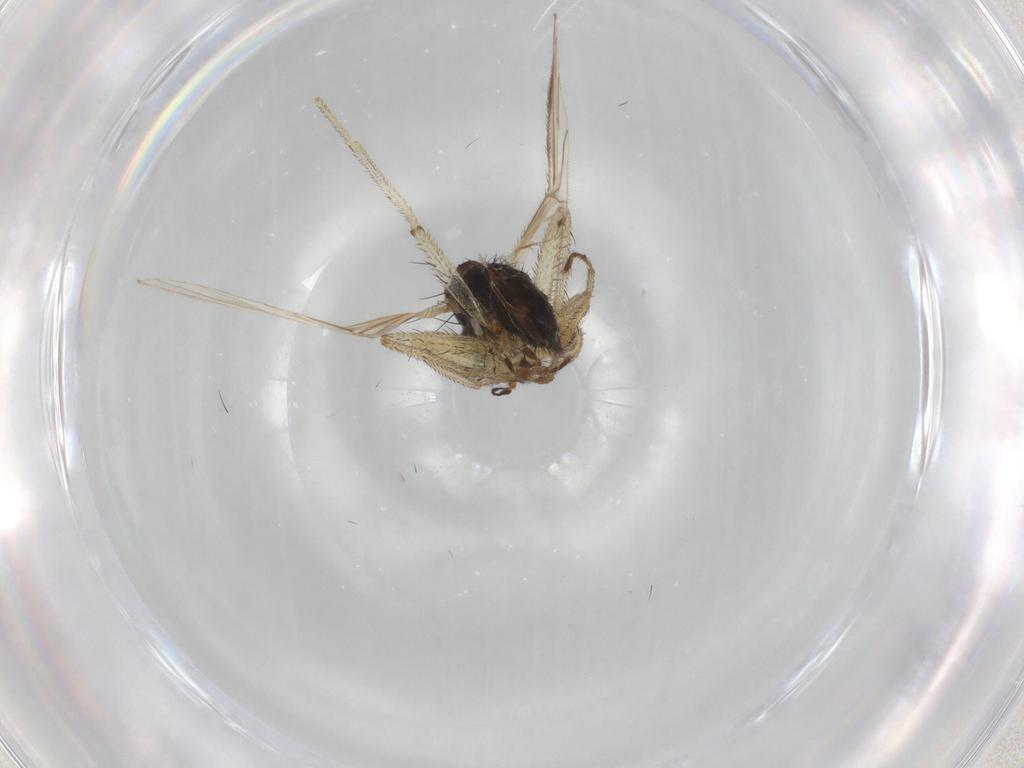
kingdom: Animalia
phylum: Arthropoda
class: Insecta
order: Diptera
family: Empididae
